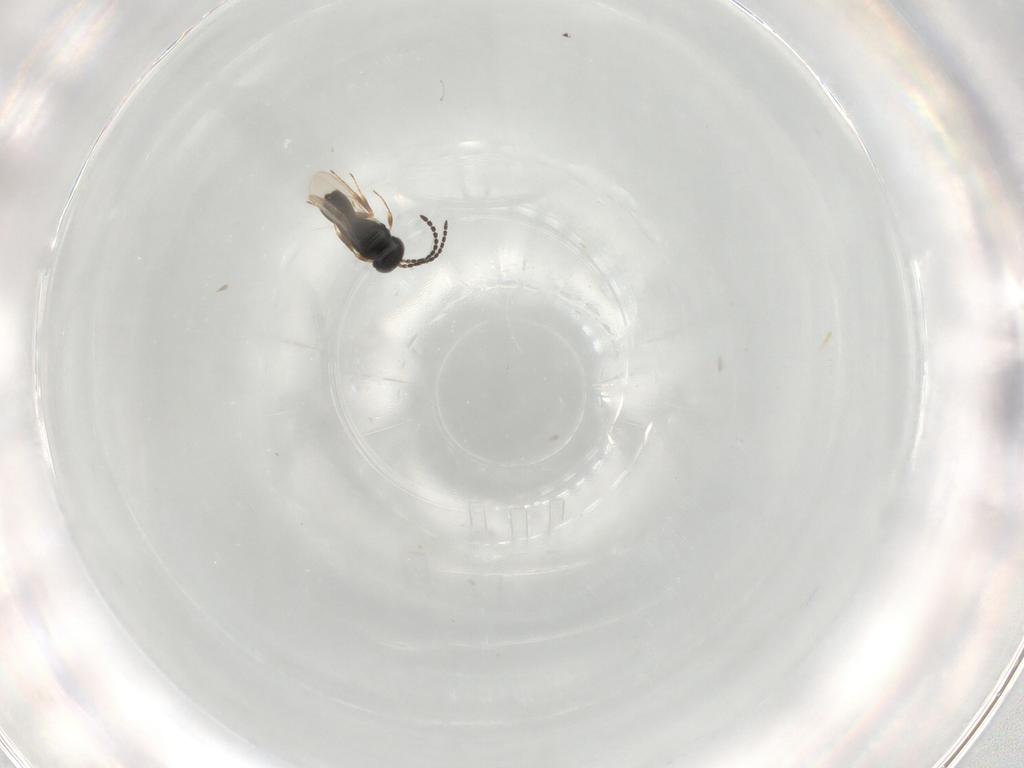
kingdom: Animalia
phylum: Arthropoda
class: Insecta
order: Hymenoptera
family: Scelionidae
